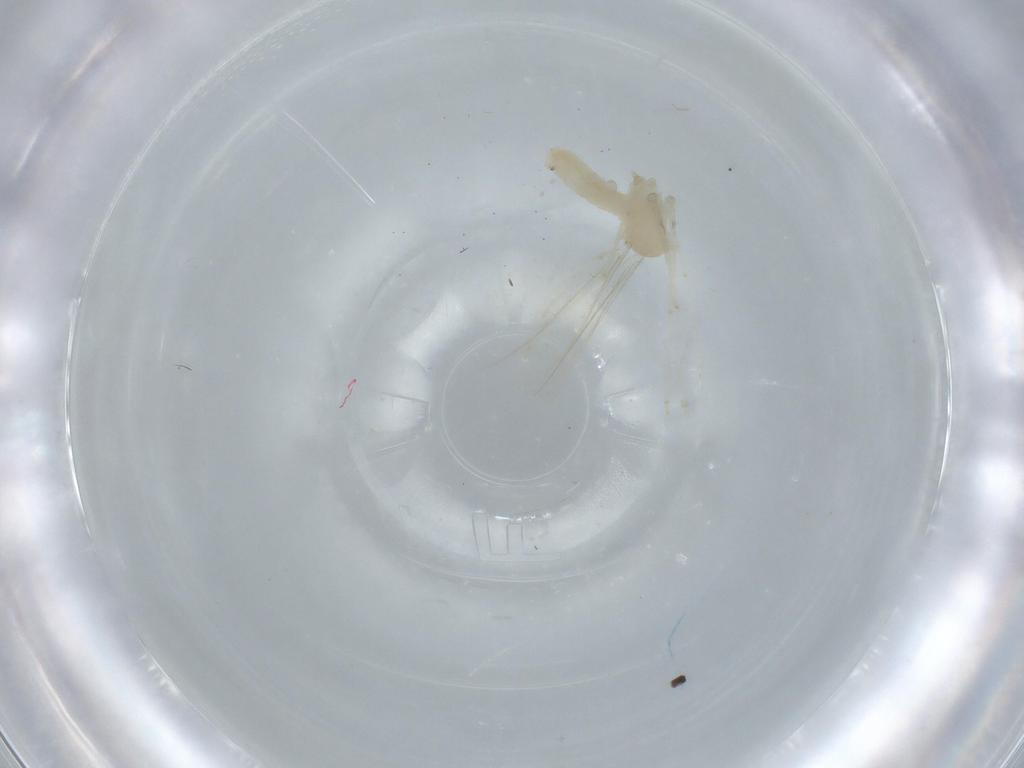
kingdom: Animalia
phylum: Arthropoda
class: Insecta
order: Diptera
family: Cecidomyiidae
